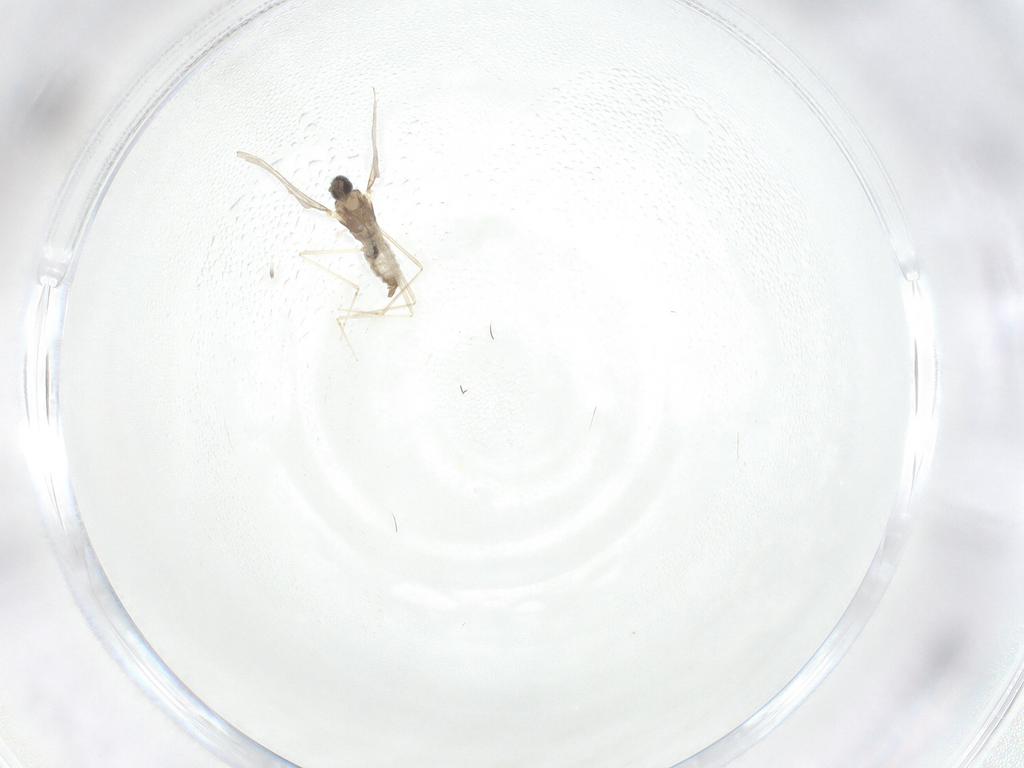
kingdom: Animalia
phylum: Arthropoda
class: Insecta
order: Diptera
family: Cecidomyiidae
